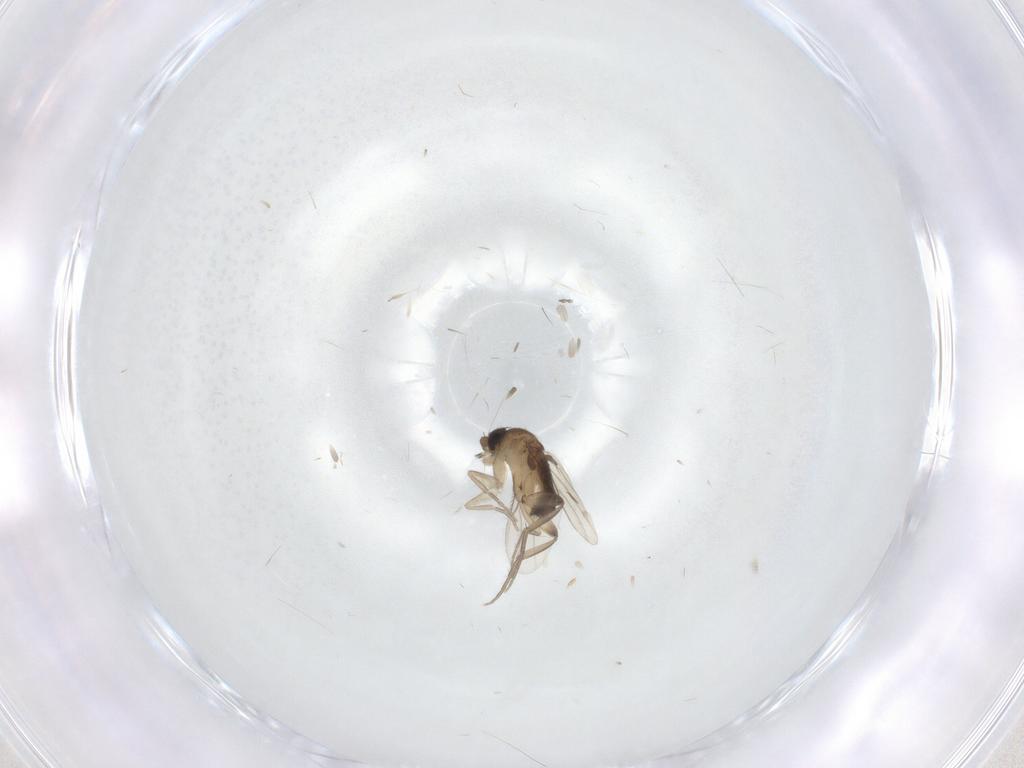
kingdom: Animalia
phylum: Arthropoda
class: Insecta
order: Diptera
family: Phoridae
